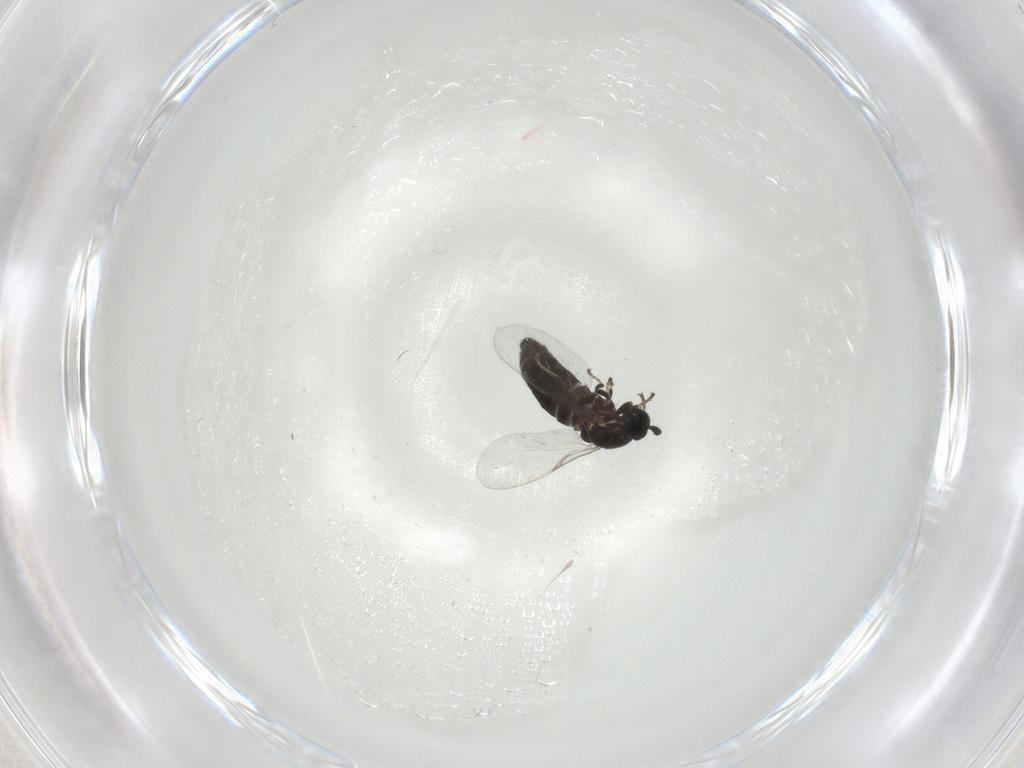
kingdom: Animalia
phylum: Arthropoda
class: Insecta
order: Diptera
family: Scatopsidae
